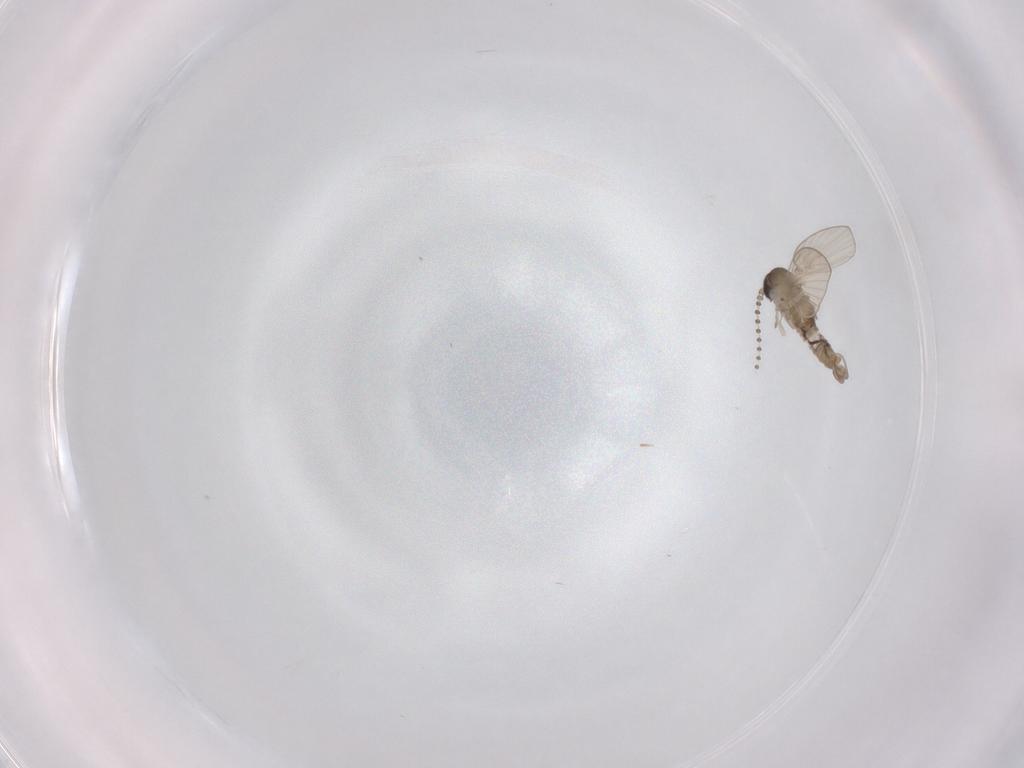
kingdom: Animalia
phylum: Arthropoda
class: Insecta
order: Diptera
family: Psychodidae
